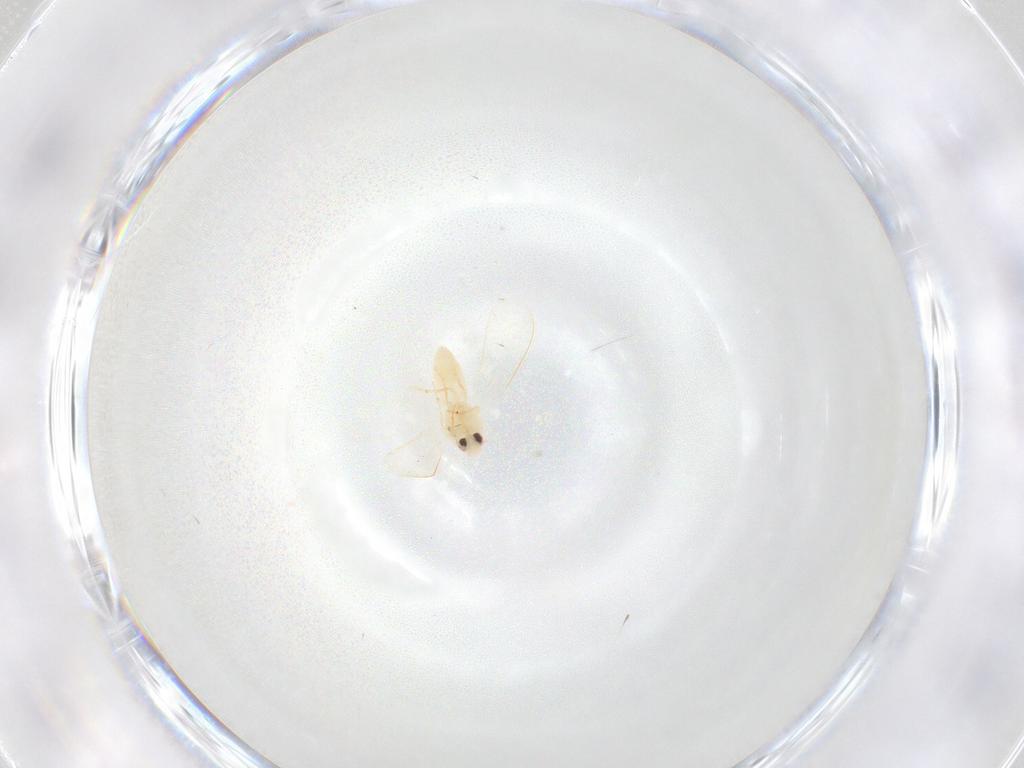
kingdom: Animalia
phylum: Arthropoda
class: Insecta
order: Hemiptera
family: Aleyrodidae
